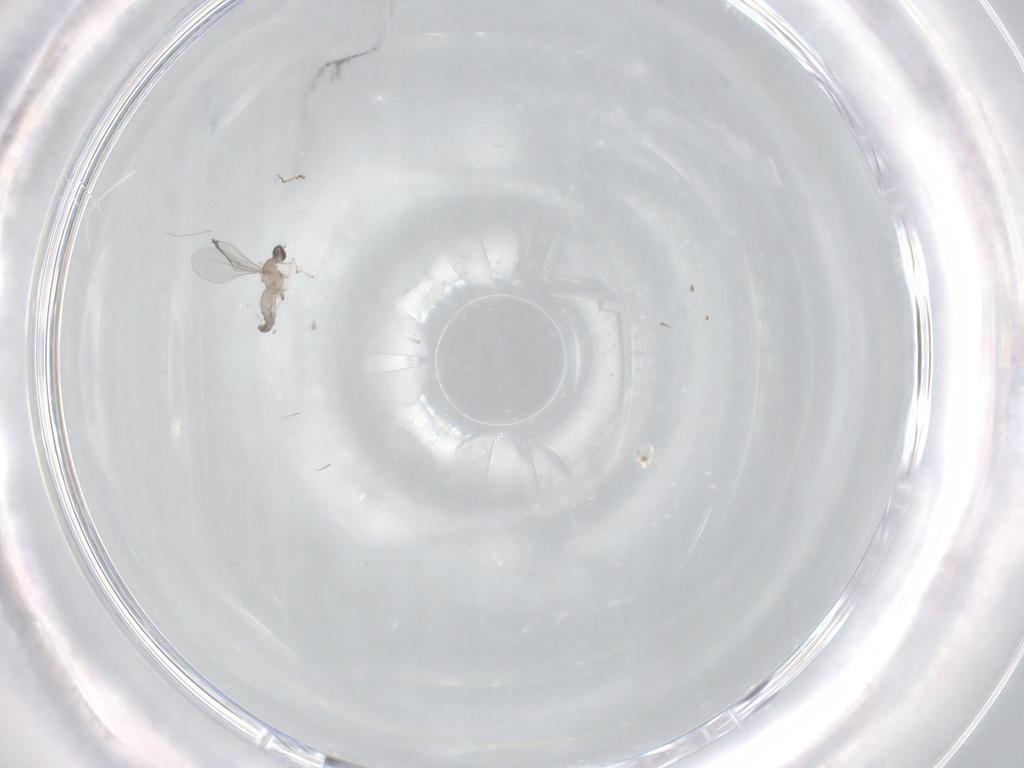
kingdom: Animalia
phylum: Arthropoda
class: Insecta
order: Diptera
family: Cecidomyiidae
